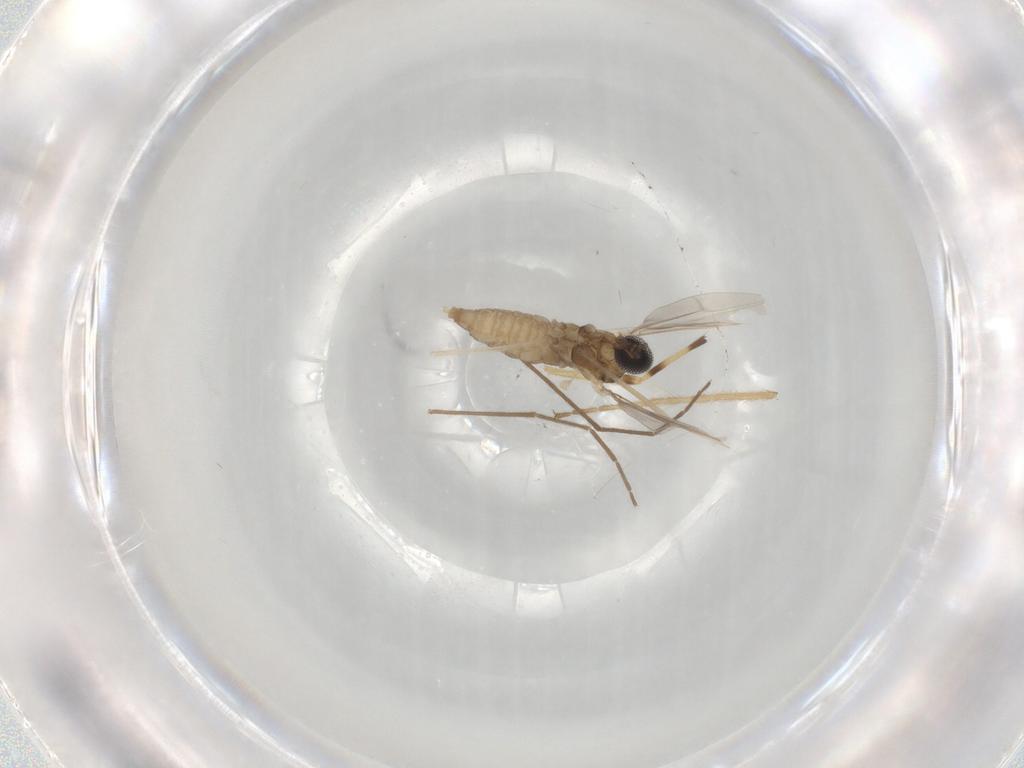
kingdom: Animalia
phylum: Arthropoda
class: Insecta
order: Diptera
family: Cecidomyiidae
